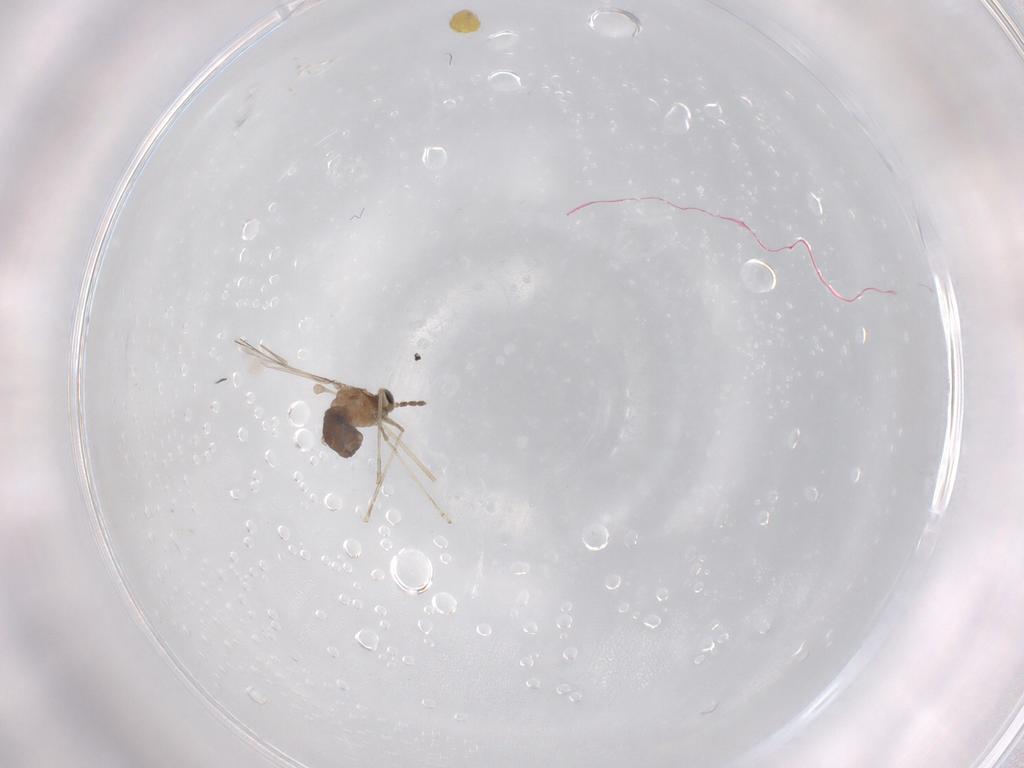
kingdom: Animalia
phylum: Arthropoda
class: Insecta
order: Diptera
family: Cecidomyiidae
